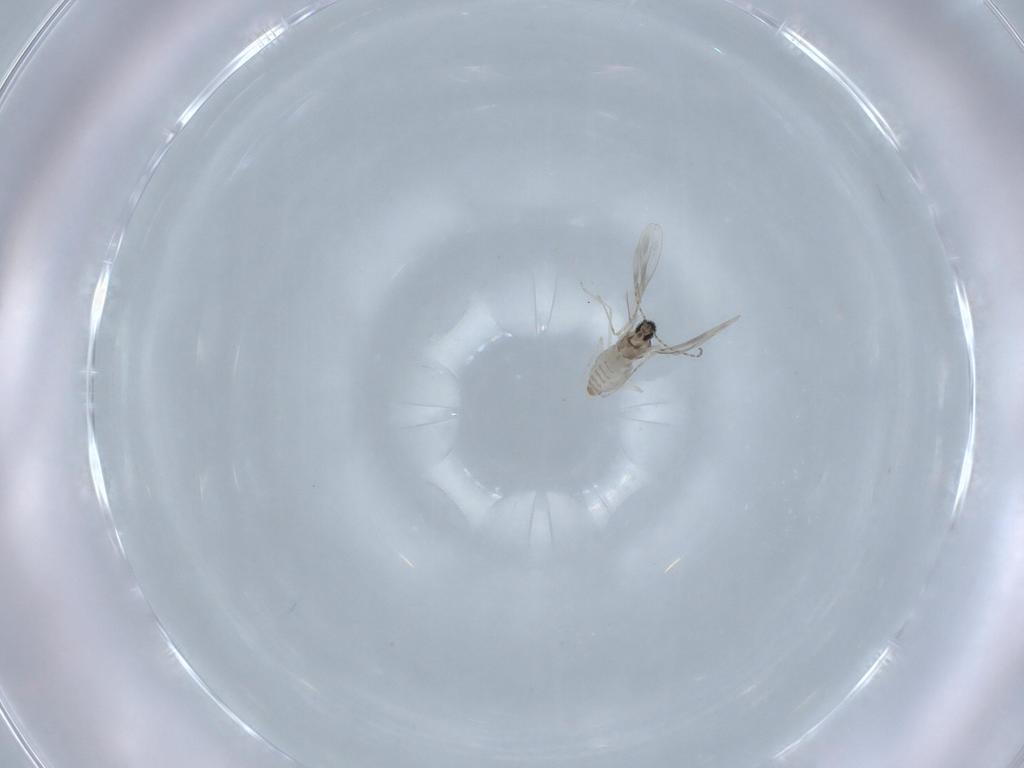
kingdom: Animalia
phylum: Arthropoda
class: Insecta
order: Diptera
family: Cecidomyiidae
